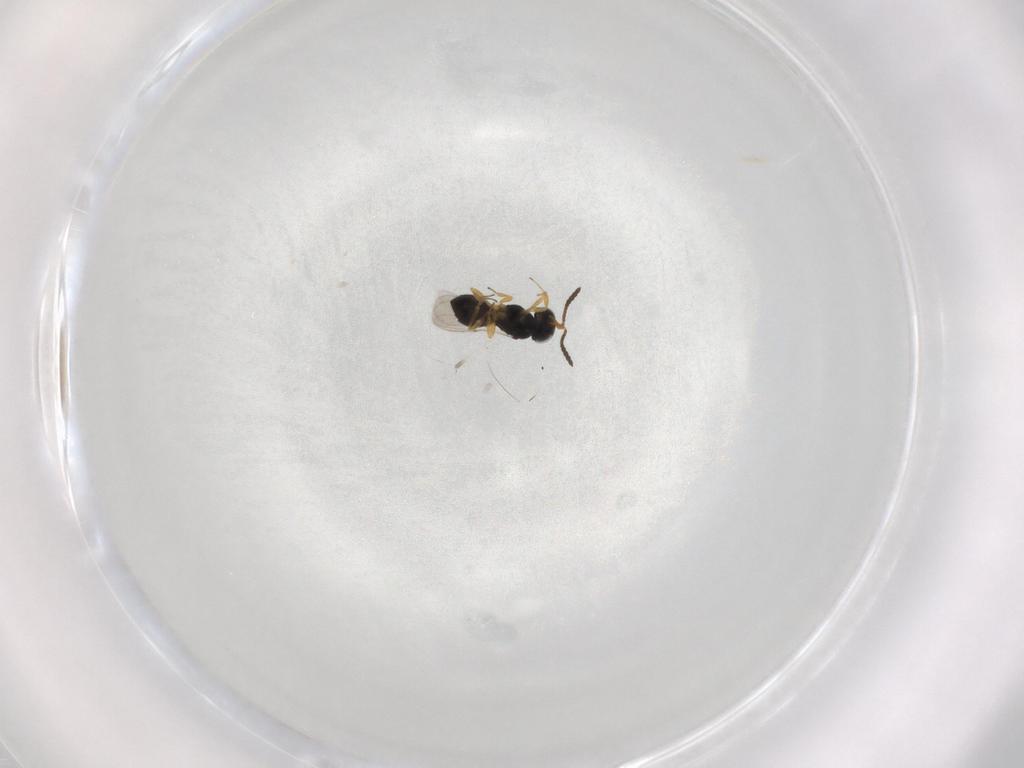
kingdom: Animalia
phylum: Arthropoda
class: Insecta
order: Hymenoptera
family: Scelionidae
